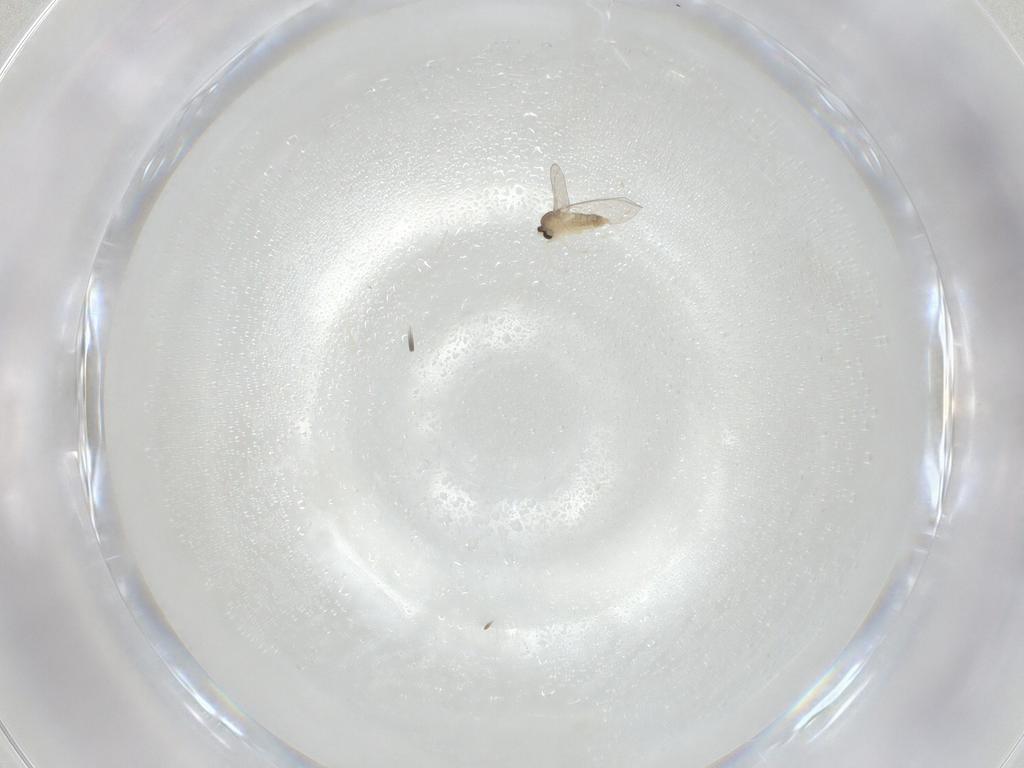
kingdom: Animalia
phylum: Arthropoda
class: Insecta
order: Diptera
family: Cecidomyiidae
